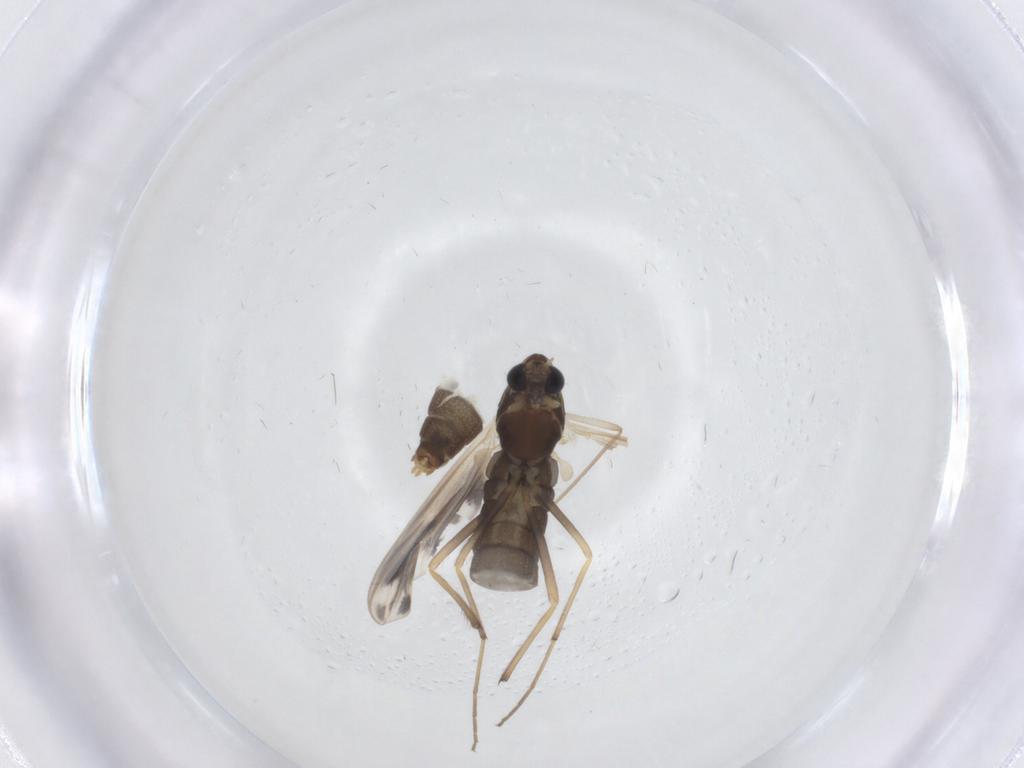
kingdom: Animalia
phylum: Arthropoda
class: Insecta
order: Diptera
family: Chironomidae
